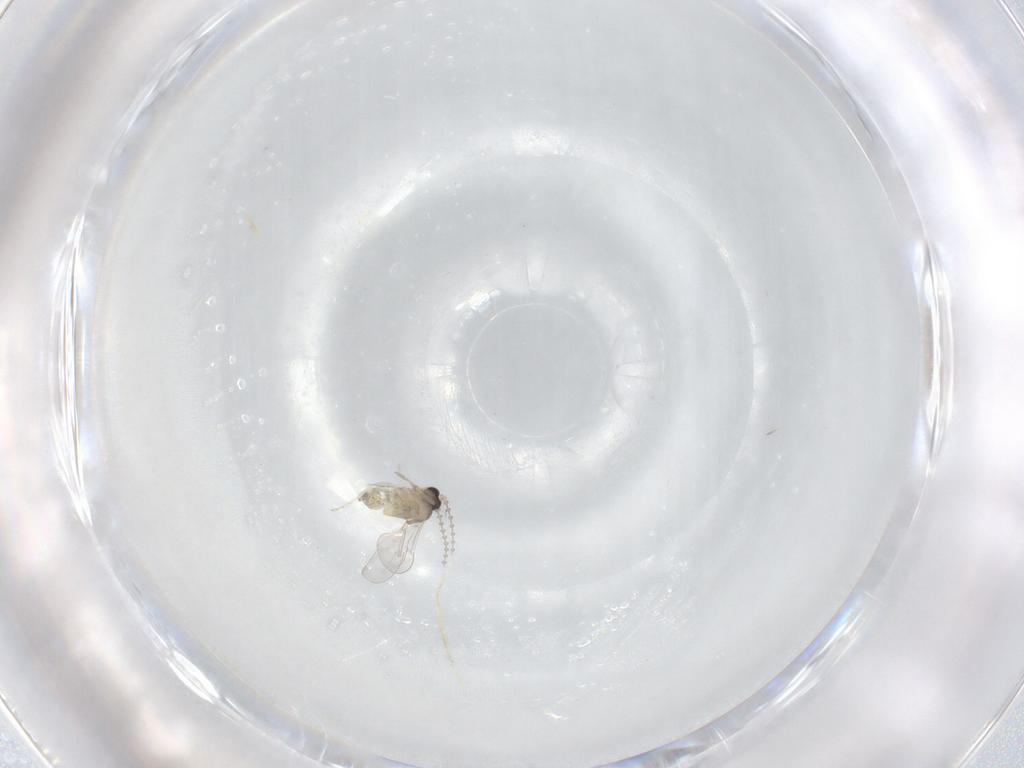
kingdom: Animalia
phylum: Arthropoda
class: Insecta
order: Diptera
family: Cecidomyiidae
